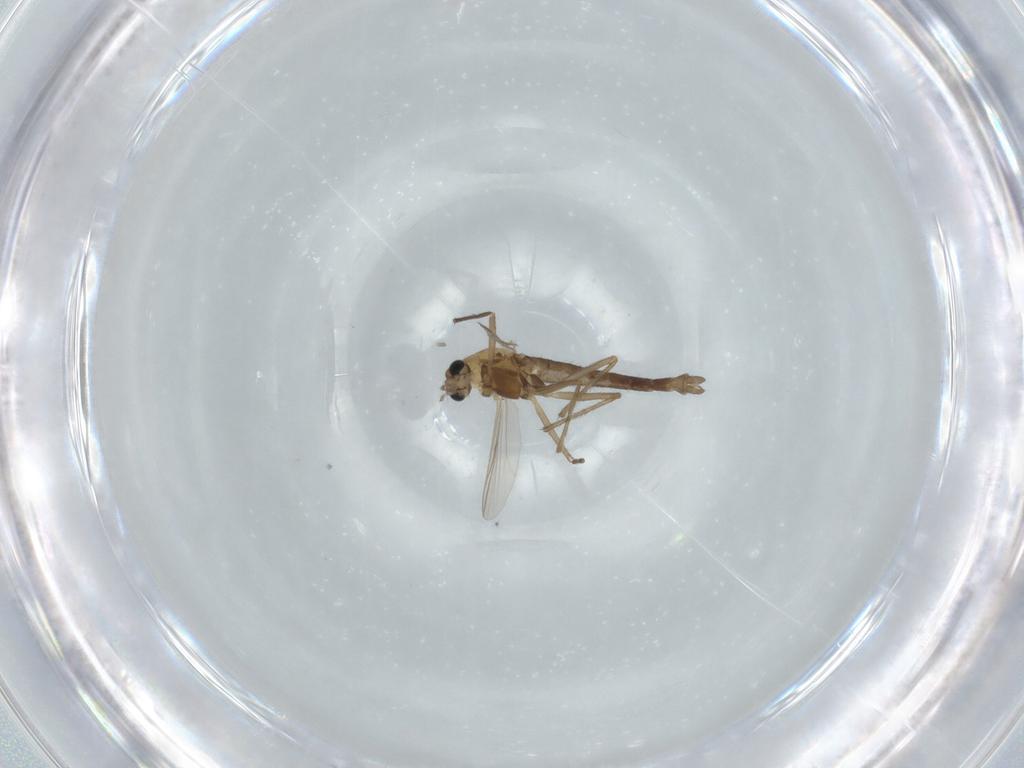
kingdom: Animalia
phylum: Arthropoda
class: Insecta
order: Diptera
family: Chironomidae
